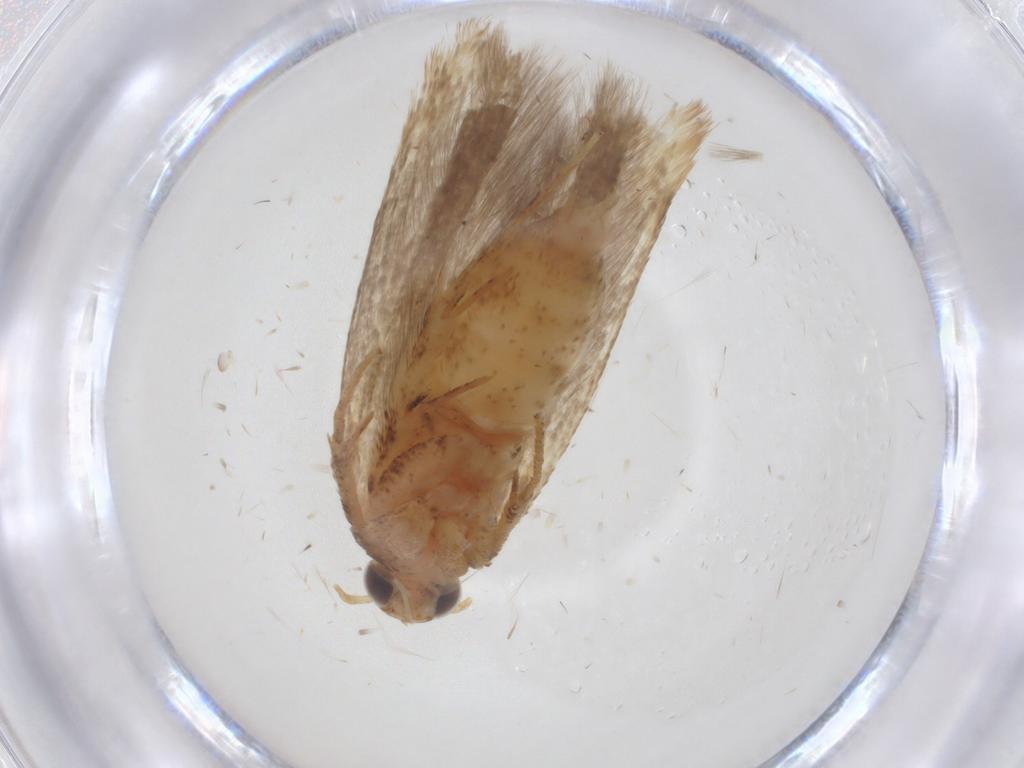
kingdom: Animalia
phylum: Arthropoda
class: Insecta
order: Lepidoptera
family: Gelechiidae
